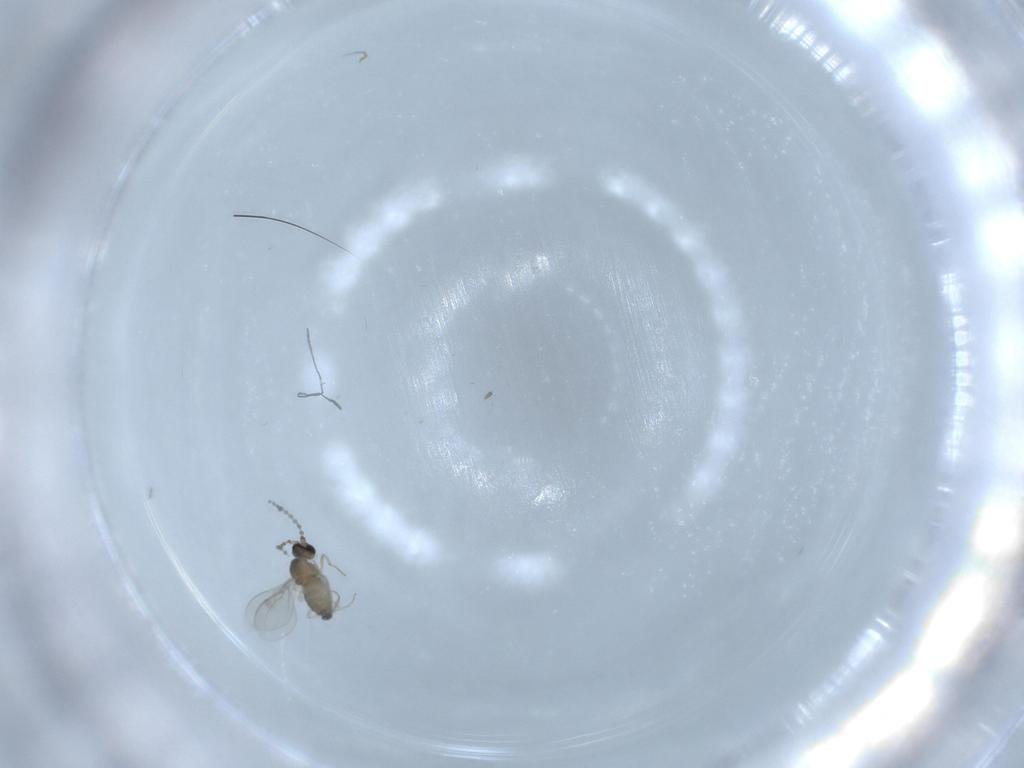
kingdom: Animalia
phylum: Arthropoda
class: Insecta
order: Diptera
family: Cecidomyiidae
